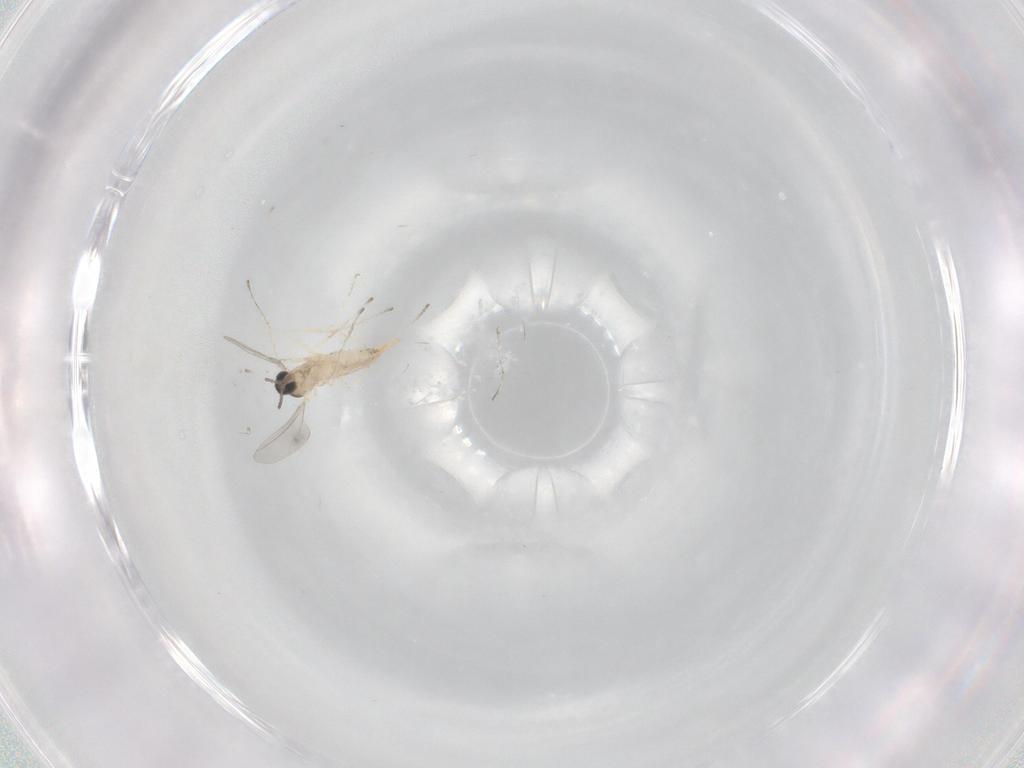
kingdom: Animalia
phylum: Arthropoda
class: Insecta
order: Diptera
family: Cecidomyiidae
